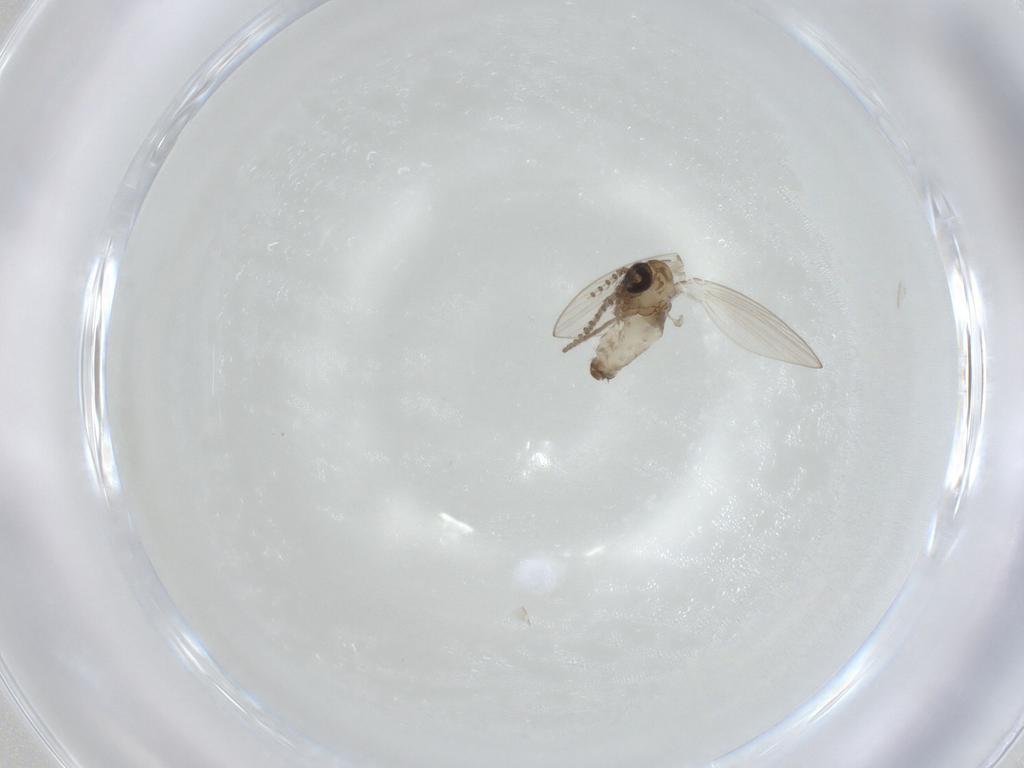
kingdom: Animalia
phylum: Arthropoda
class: Insecta
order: Diptera
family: Psychodidae
